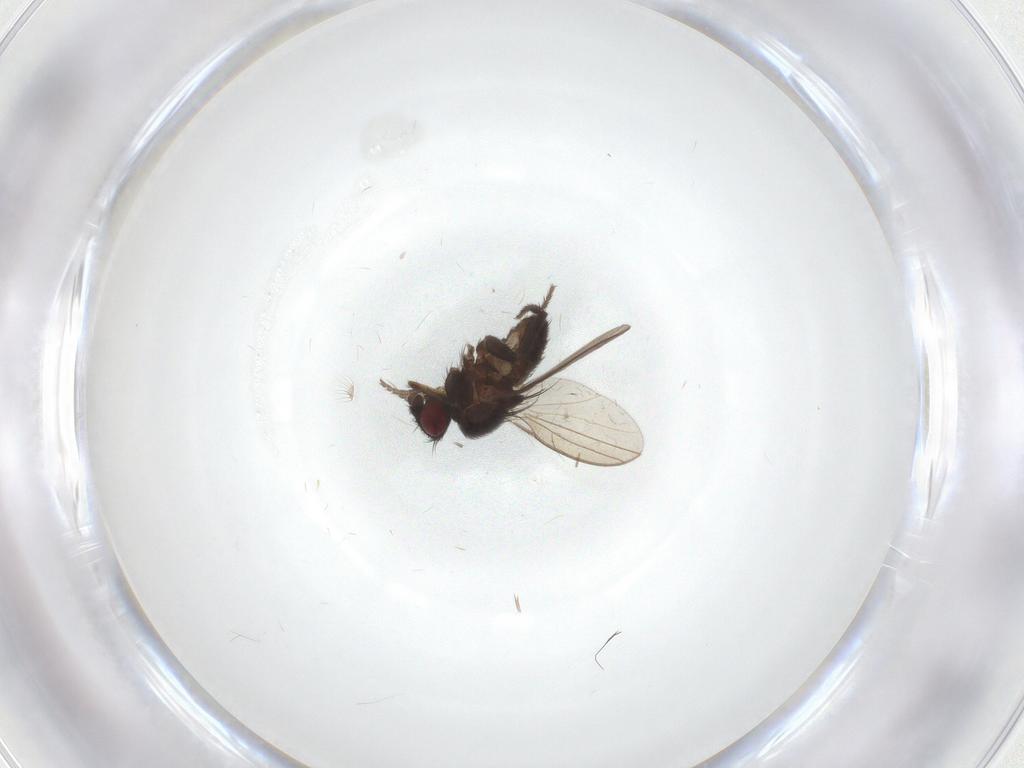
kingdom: Animalia
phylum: Arthropoda
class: Insecta
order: Diptera
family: Milichiidae
